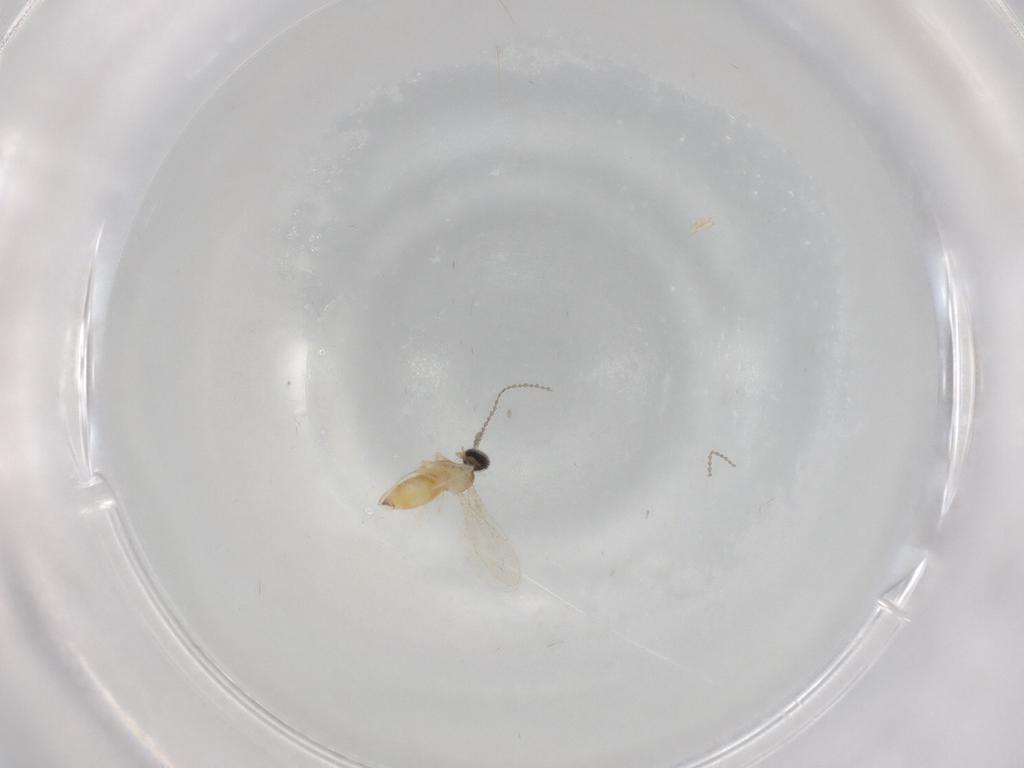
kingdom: Animalia
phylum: Arthropoda
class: Insecta
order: Diptera
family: Cecidomyiidae
